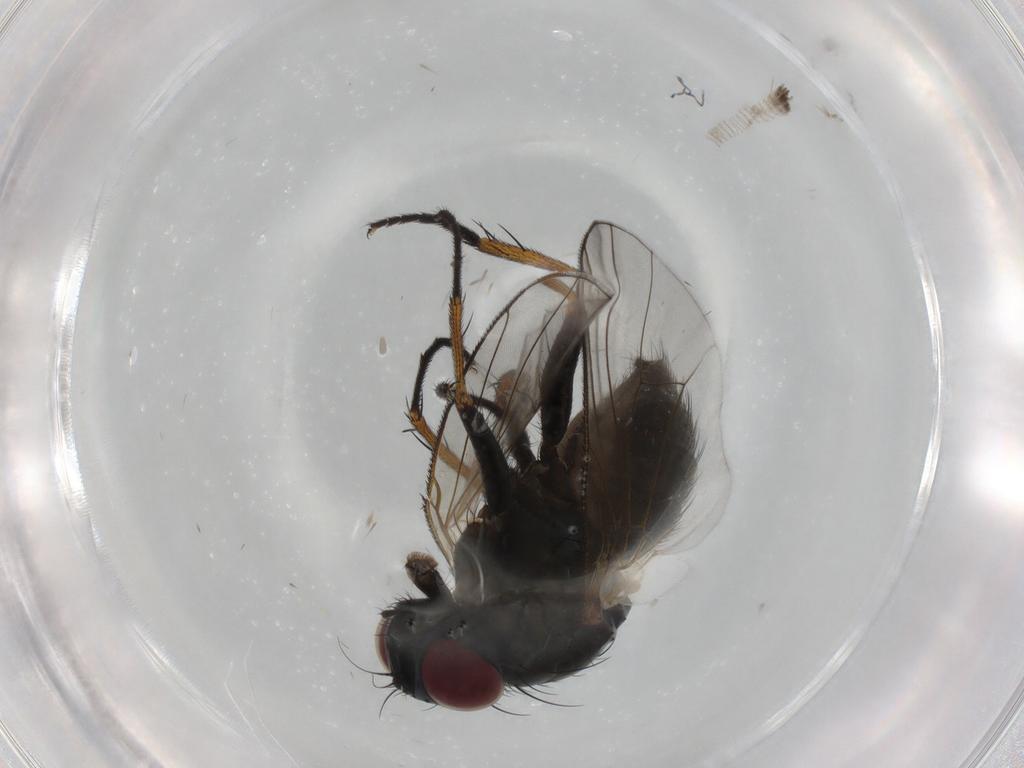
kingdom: Animalia
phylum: Arthropoda
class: Insecta
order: Diptera
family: Muscidae
